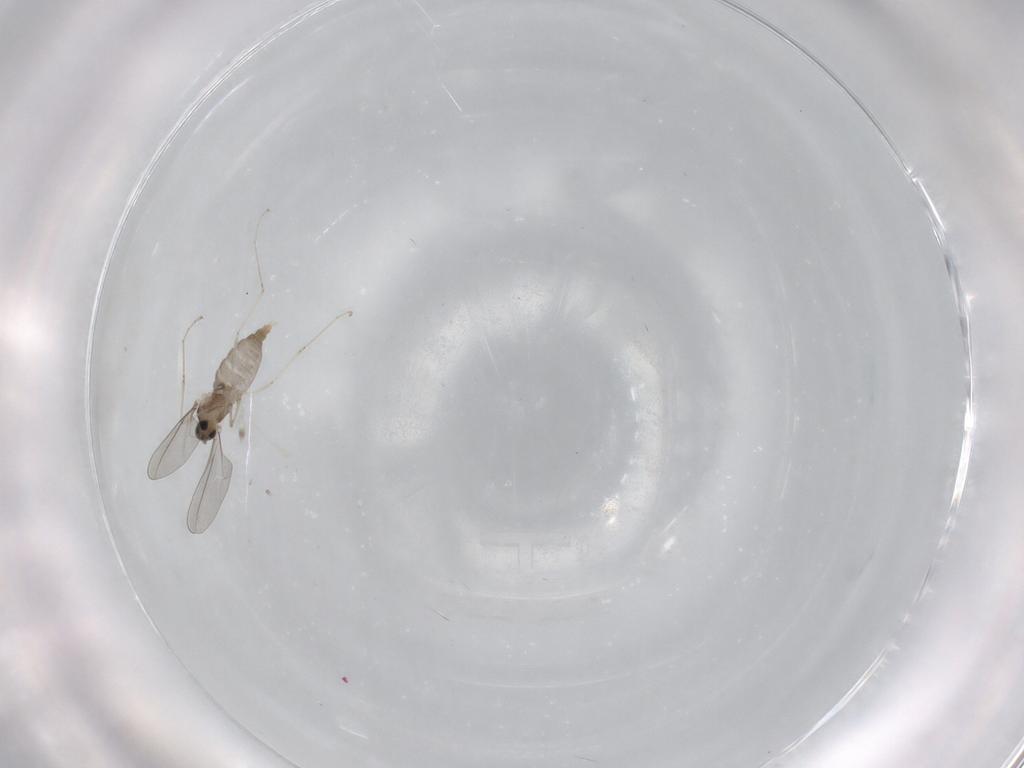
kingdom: Animalia
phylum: Arthropoda
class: Insecta
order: Diptera
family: Cecidomyiidae
